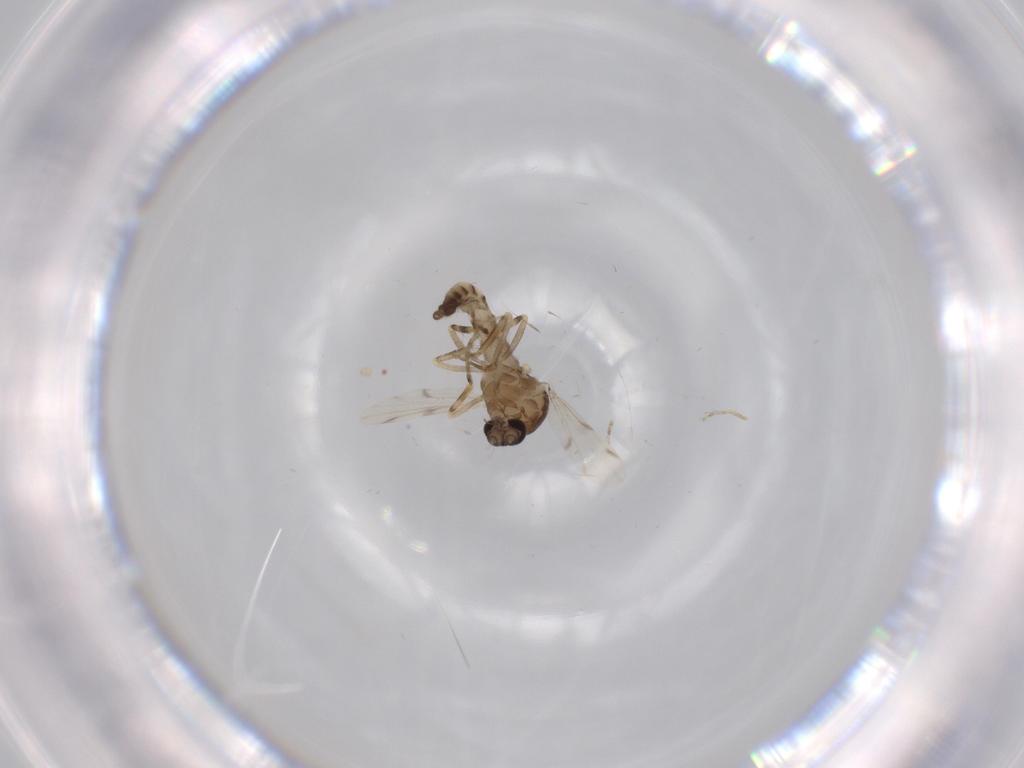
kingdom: Animalia
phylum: Arthropoda
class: Insecta
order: Diptera
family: Ceratopogonidae
